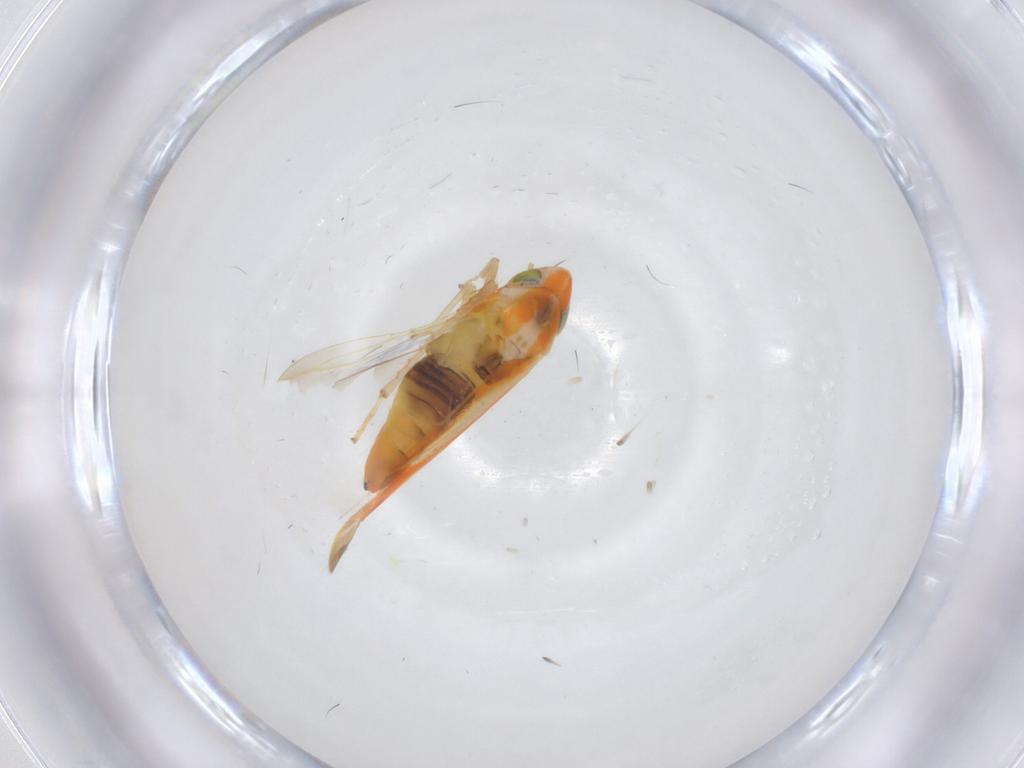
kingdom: Animalia
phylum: Arthropoda
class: Insecta
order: Hemiptera
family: Cicadellidae
